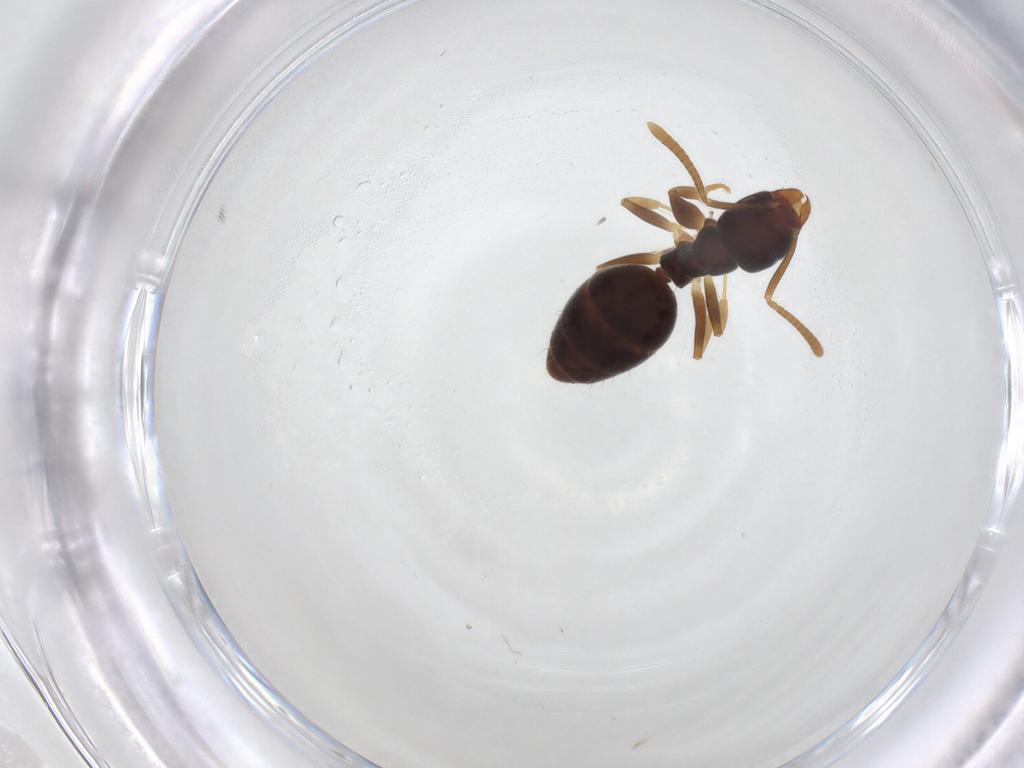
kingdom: Animalia
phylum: Arthropoda
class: Insecta
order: Hymenoptera
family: Formicidae
